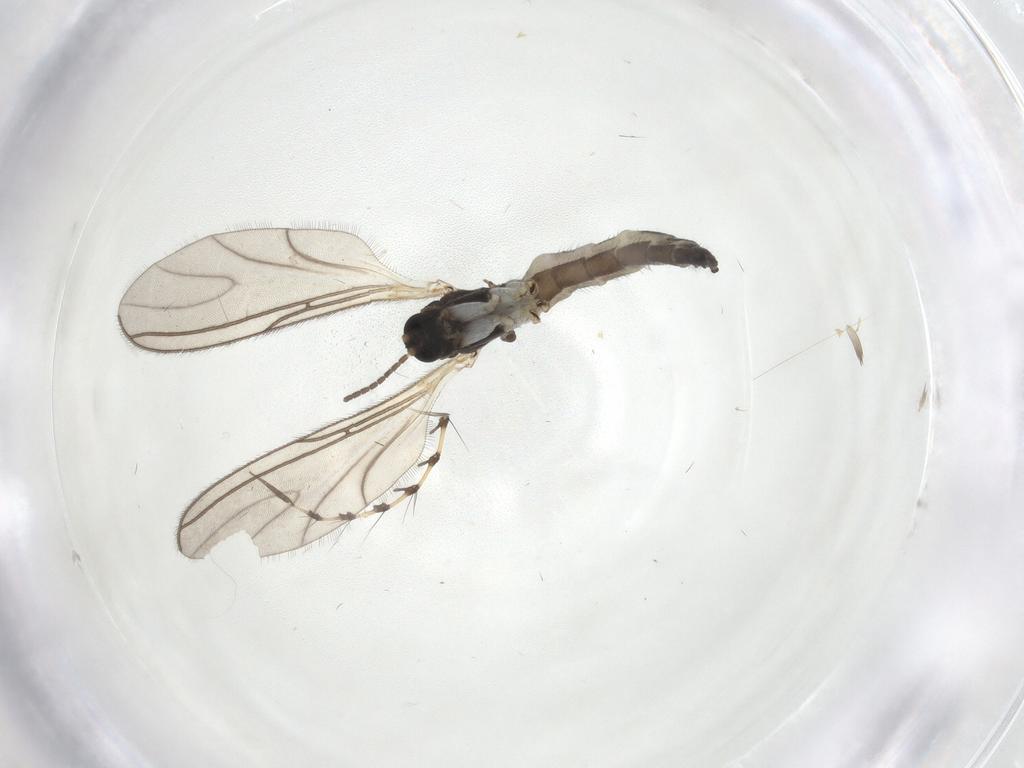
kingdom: Animalia
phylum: Arthropoda
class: Insecta
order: Diptera
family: Sciaridae
